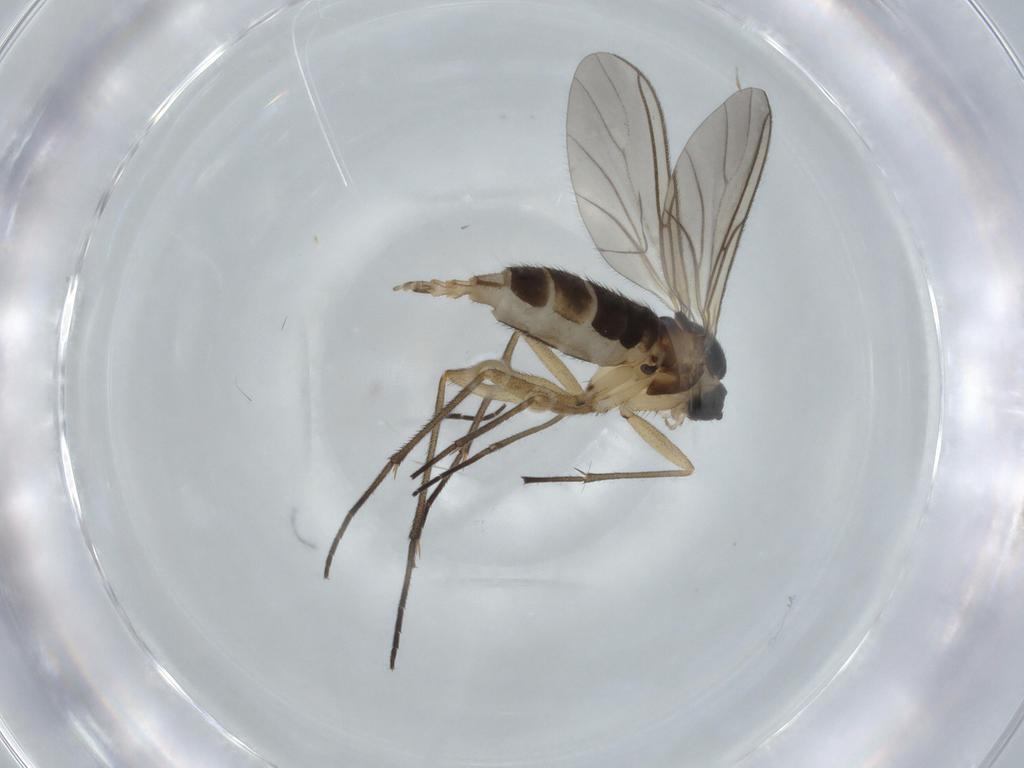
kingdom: Animalia
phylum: Arthropoda
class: Insecta
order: Diptera
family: Sciaridae
